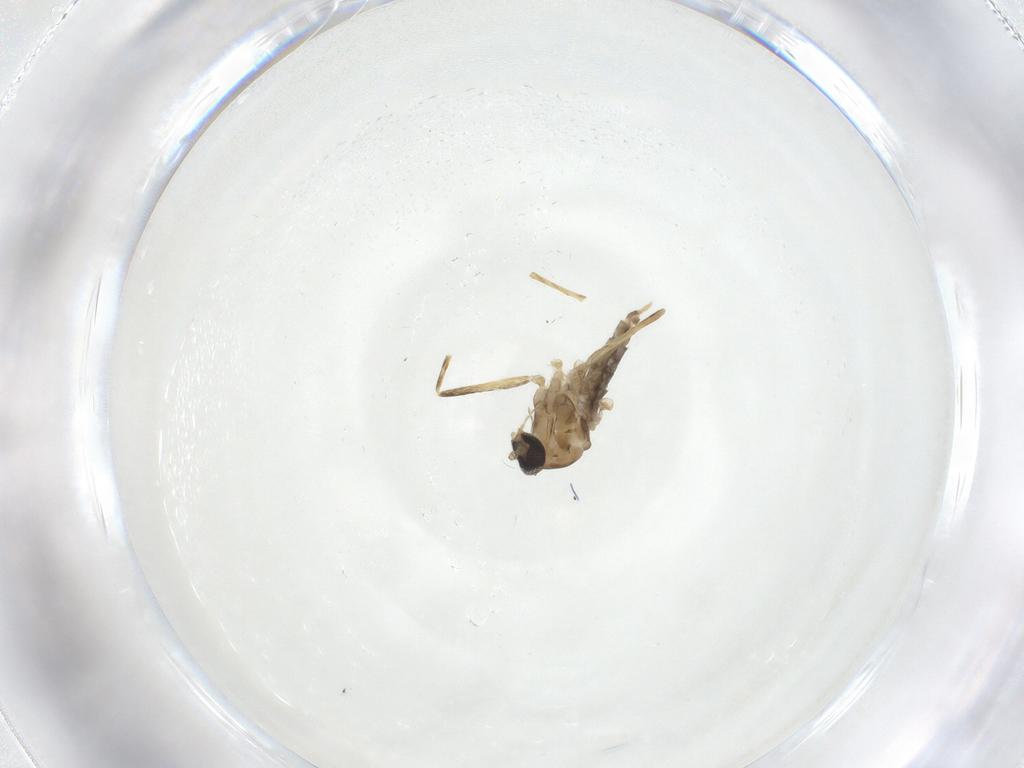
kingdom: Animalia
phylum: Arthropoda
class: Insecta
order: Diptera
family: Cecidomyiidae
